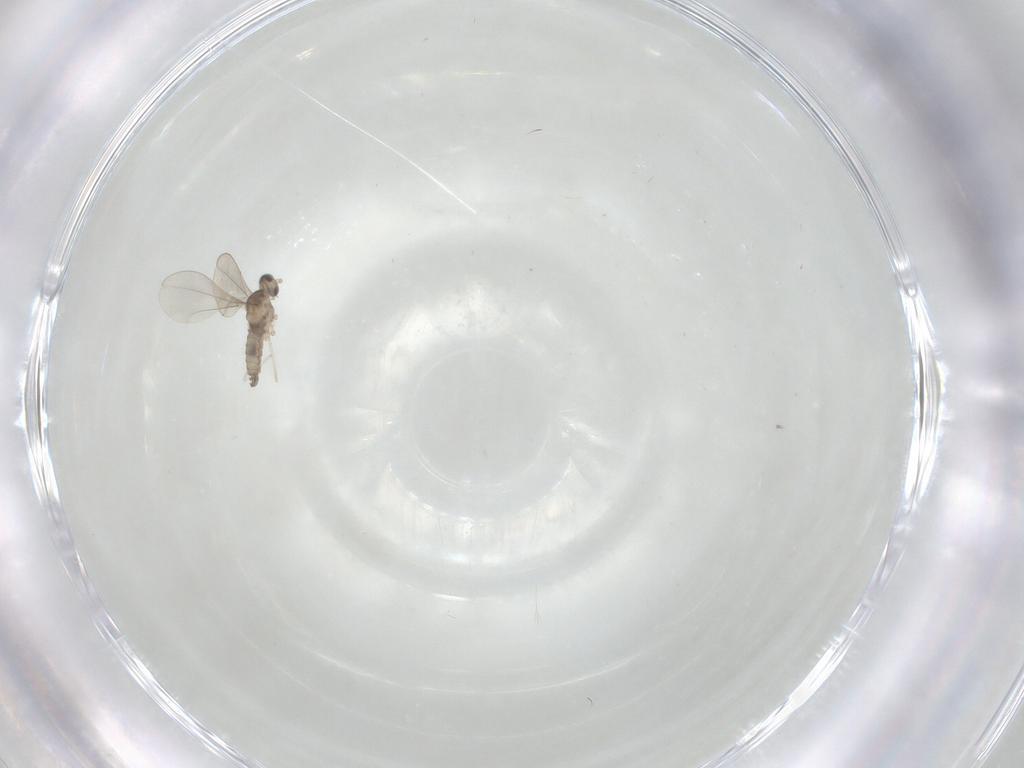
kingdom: Animalia
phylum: Arthropoda
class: Insecta
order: Diptera
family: Cecidomyiidae
